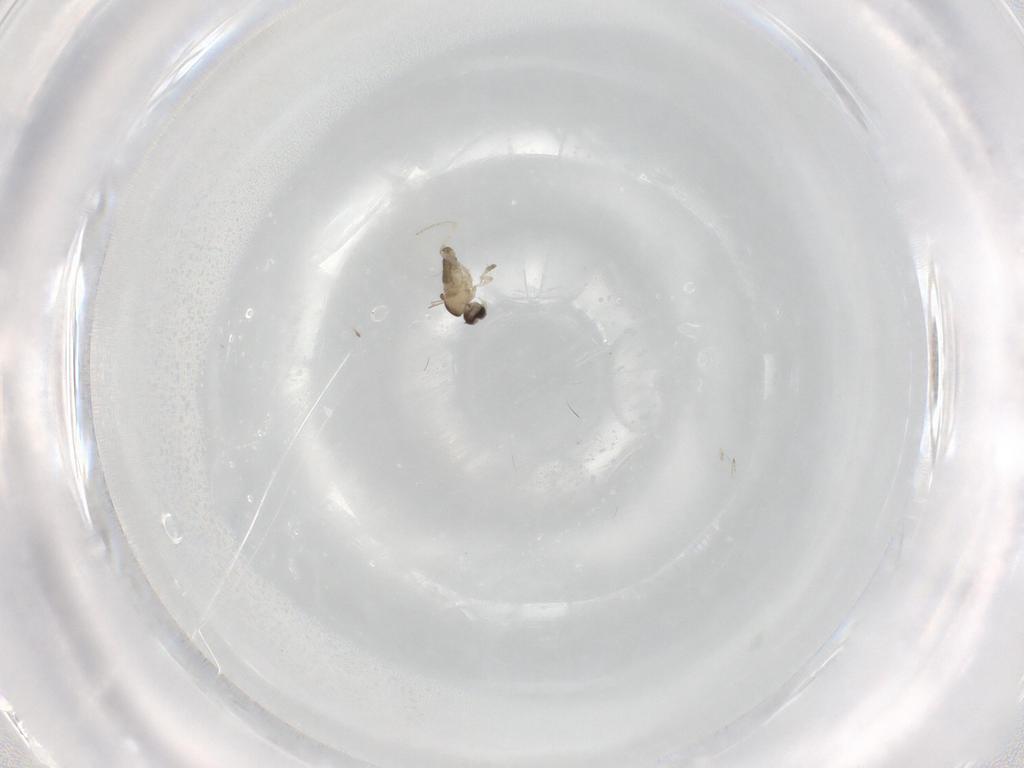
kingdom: Animalia
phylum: Arthropoda
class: Insecta
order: Diptera
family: Cecidomyiidae
